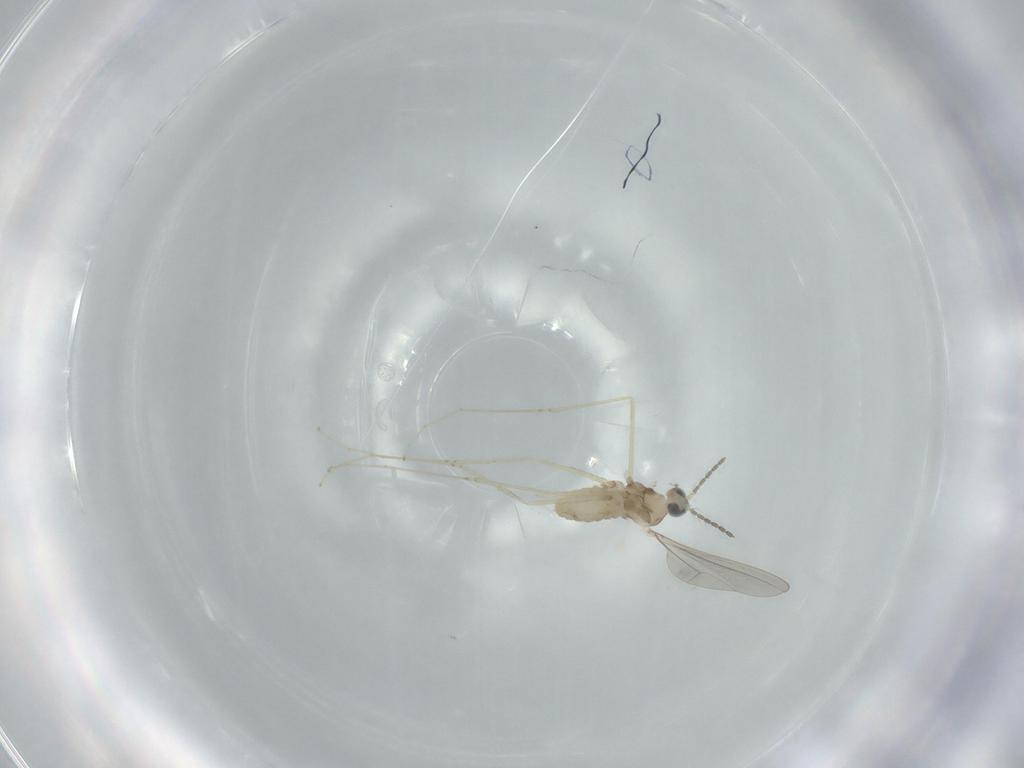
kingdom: Animalia
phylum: Arthropoda
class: Insecta
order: Diptera
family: Cecidomyiidae
